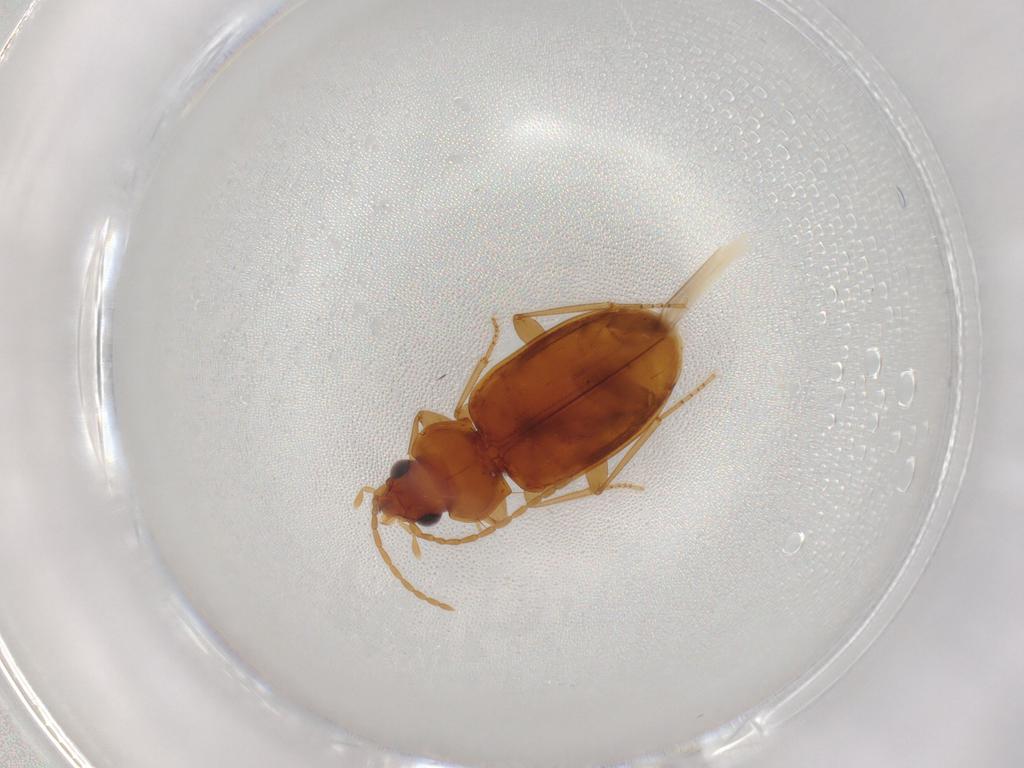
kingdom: Animalia
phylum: Arthropoda
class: Insecta
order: Coleoptera
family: Carabidae
